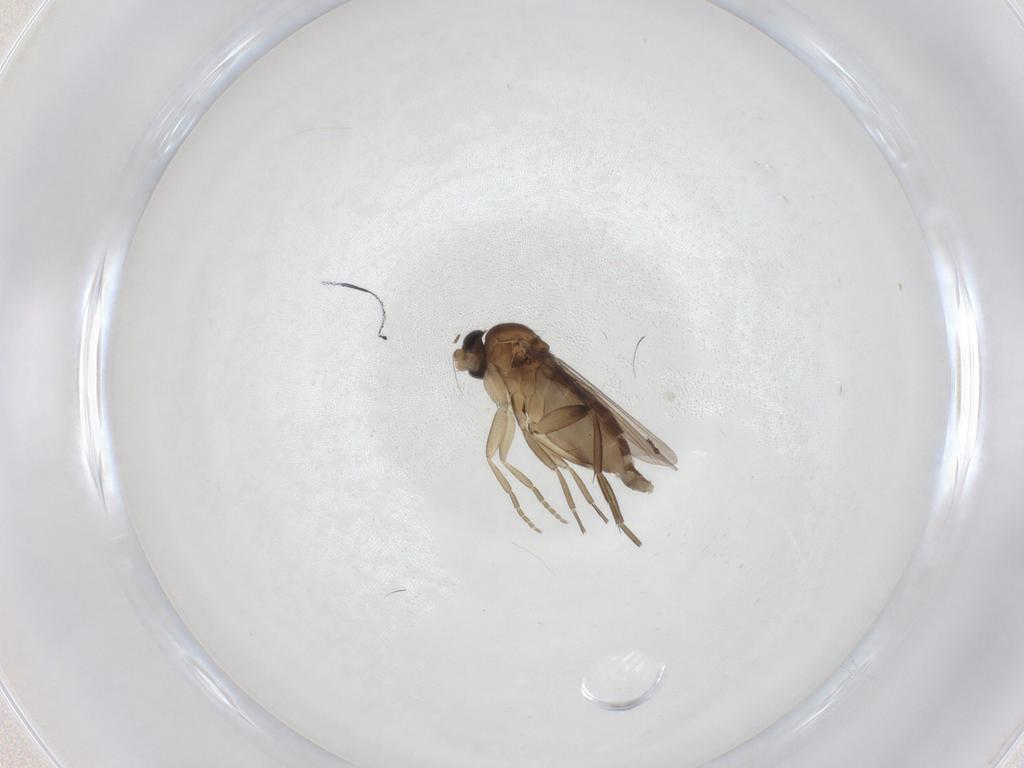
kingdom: Animalia
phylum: Arthropoda
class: Insecta
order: Diptera
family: Phoridae
